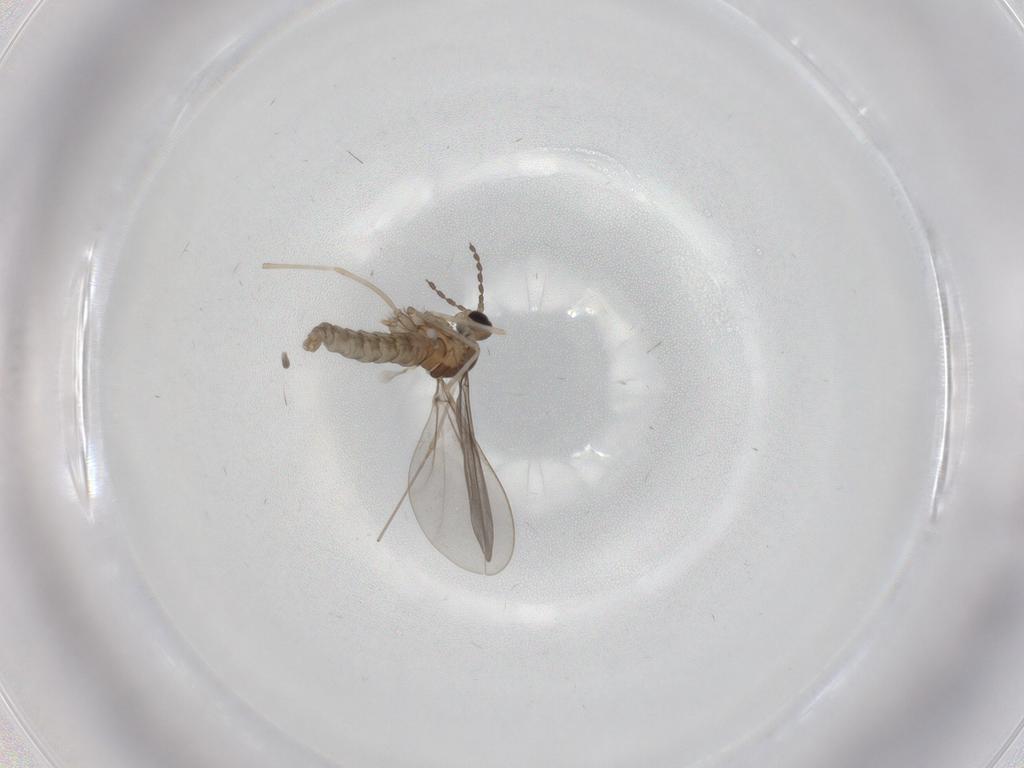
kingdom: Animalia
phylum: Arthropoda
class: Insecta
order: Diptera
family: Cecidomyiidae
